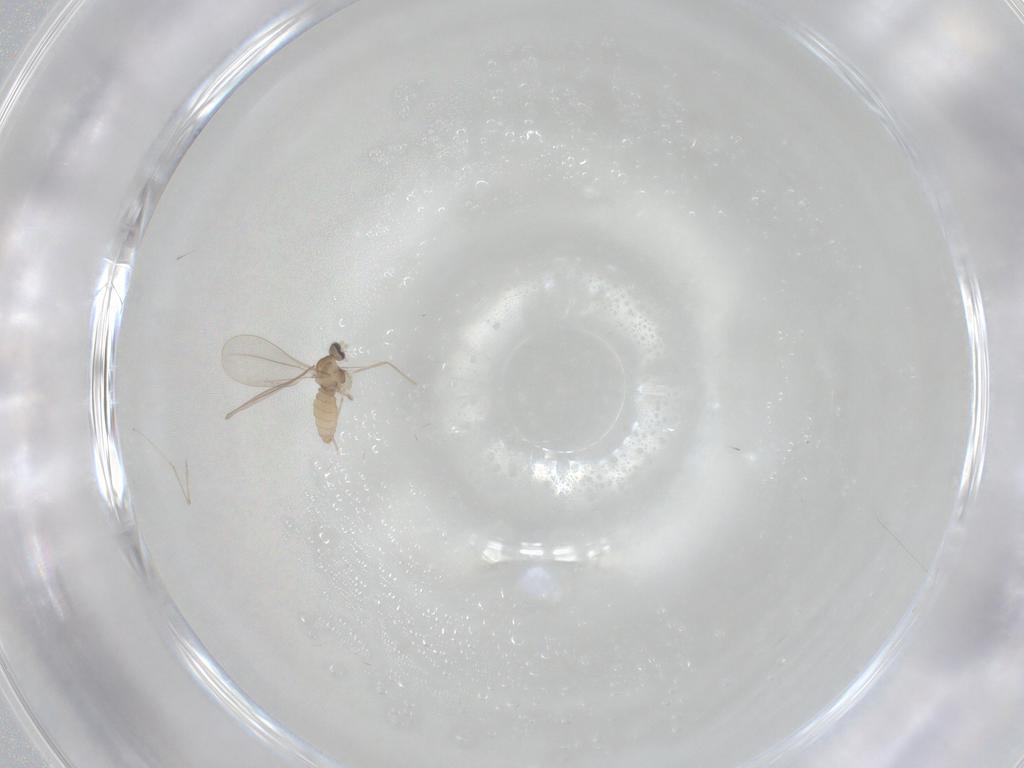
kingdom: Animalia
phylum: Arthropoda
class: Insecta
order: Diptera
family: Cecidomyiidae
